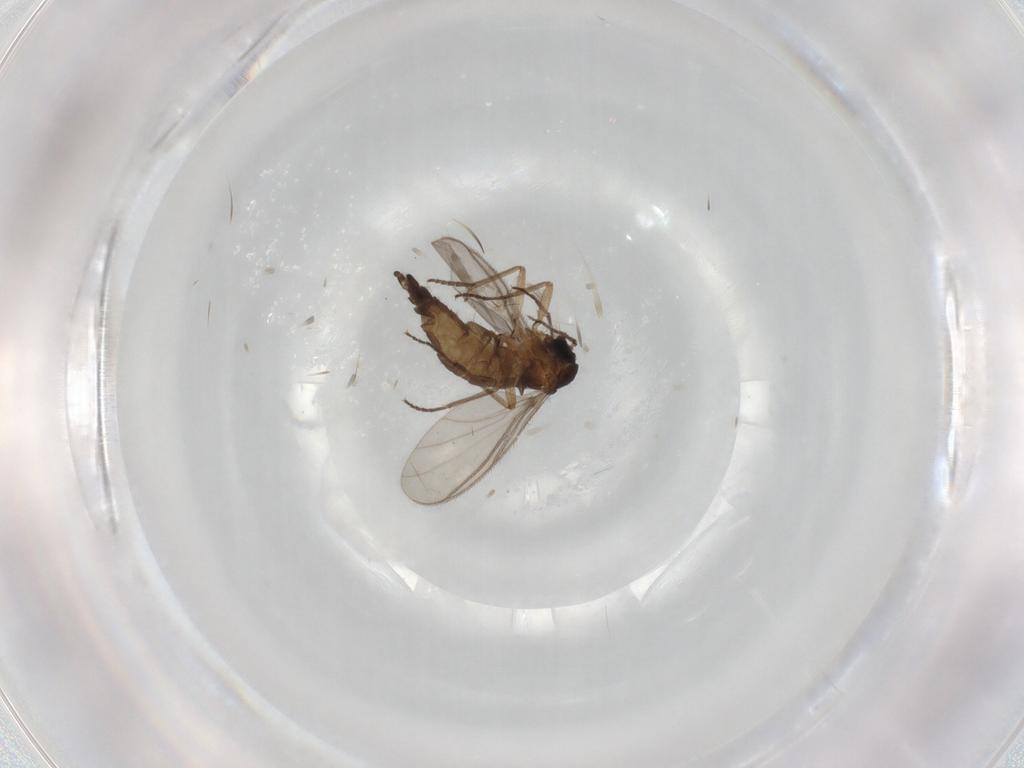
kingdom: Animalia
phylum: Arthropoda
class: Insecta
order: Diptera
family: Sciaridae
